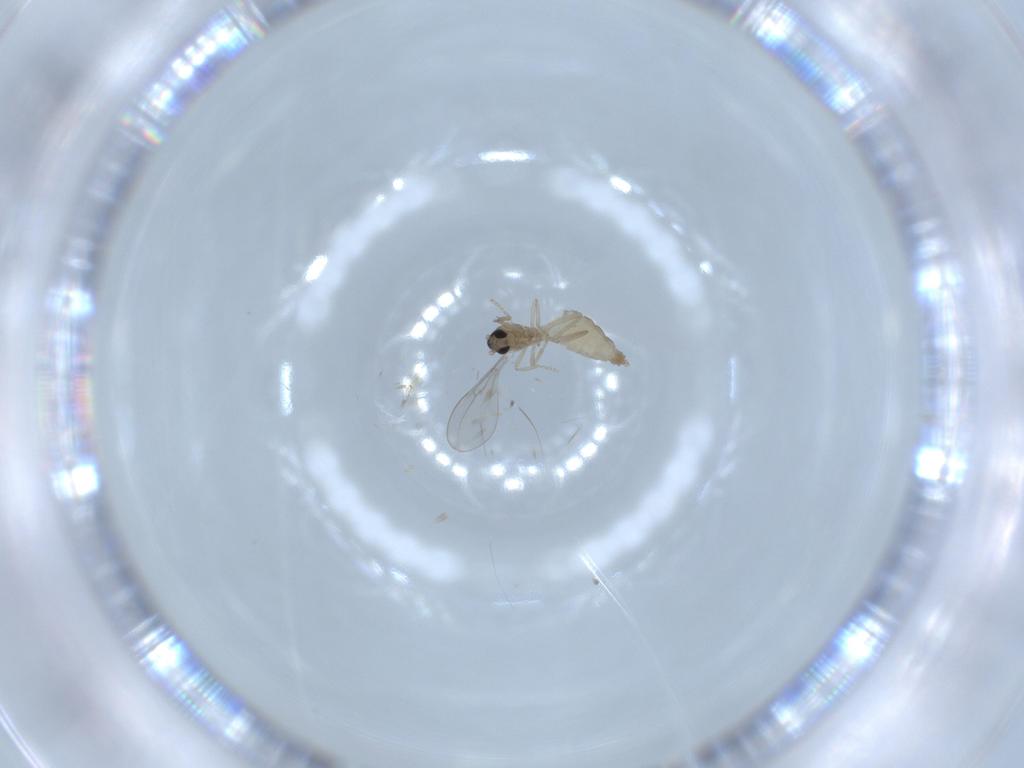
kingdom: Animalia
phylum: Arthropoda
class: Insecta
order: Diptera
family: Cecidomyiidae
